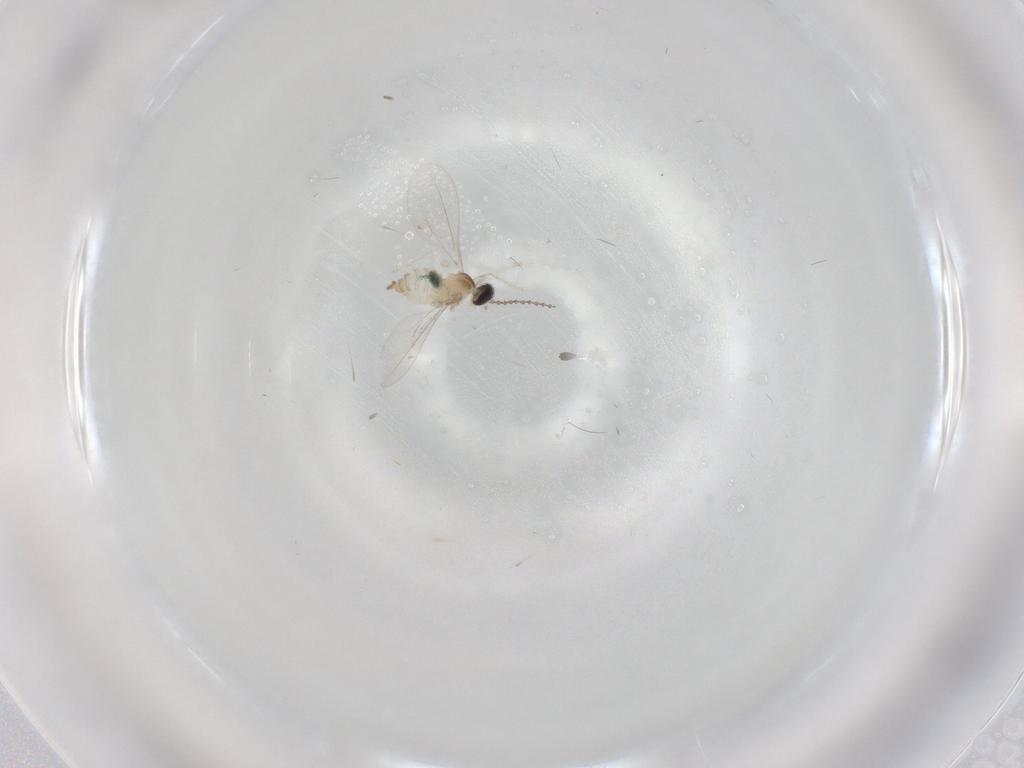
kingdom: Animalia
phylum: Arthropoda
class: Insecta
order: Diptera
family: Cecidomyiidae
